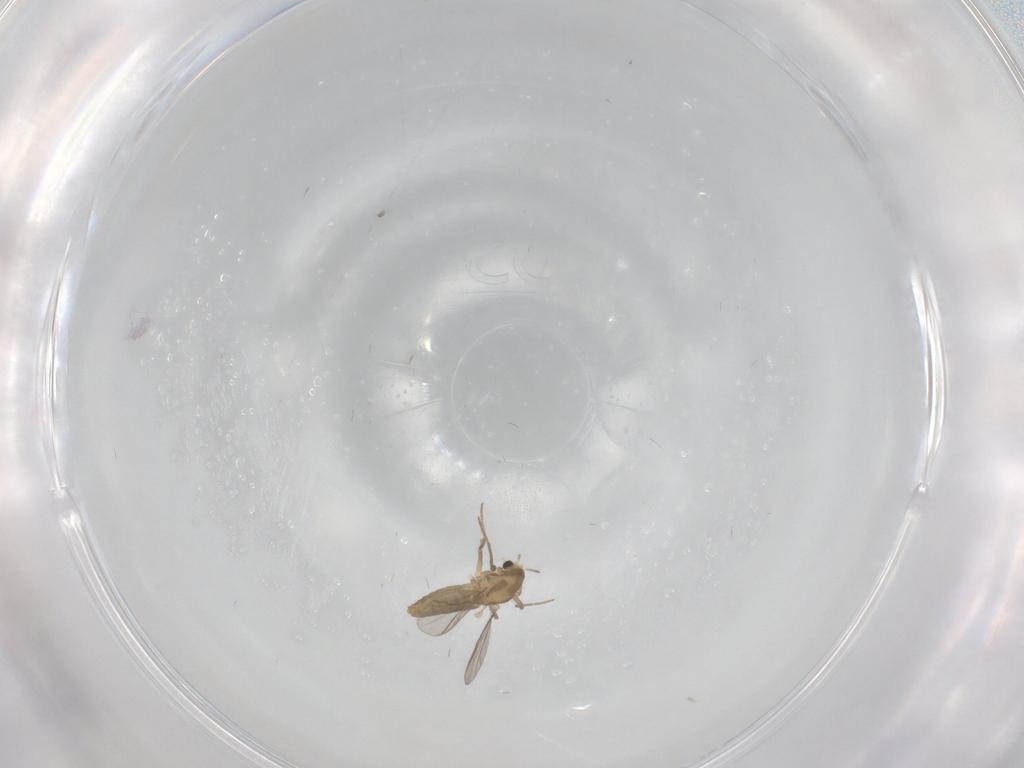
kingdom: Animalia
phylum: Arthropoda
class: Insecta
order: Diptera
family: Chironomidae
